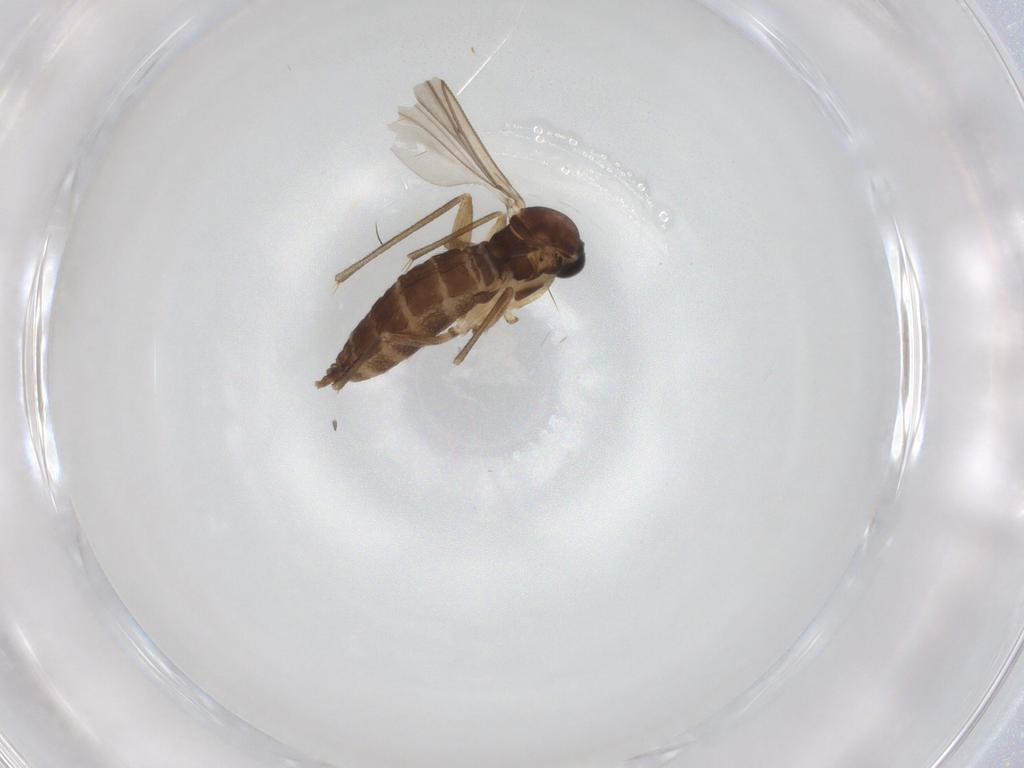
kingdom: Animalia
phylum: Arthropoda
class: Insecta
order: Diptera
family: Sciaridae
